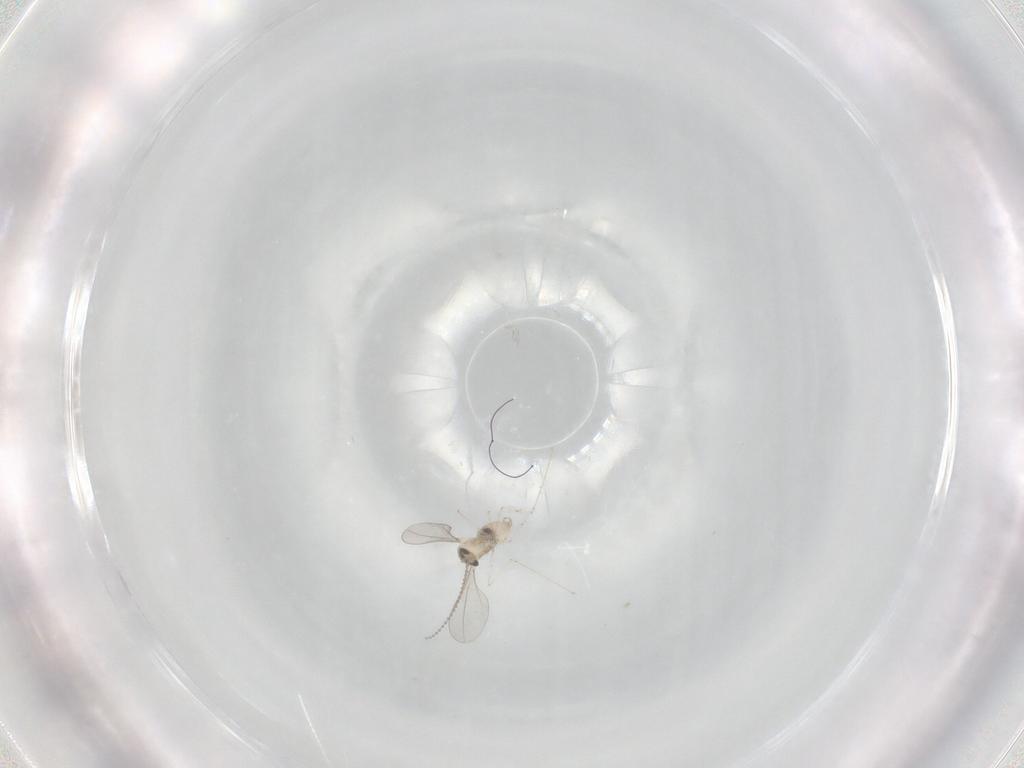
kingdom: Animalia
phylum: Arthropoda
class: Insecta
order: Diptera
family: Cecidomyiidae
